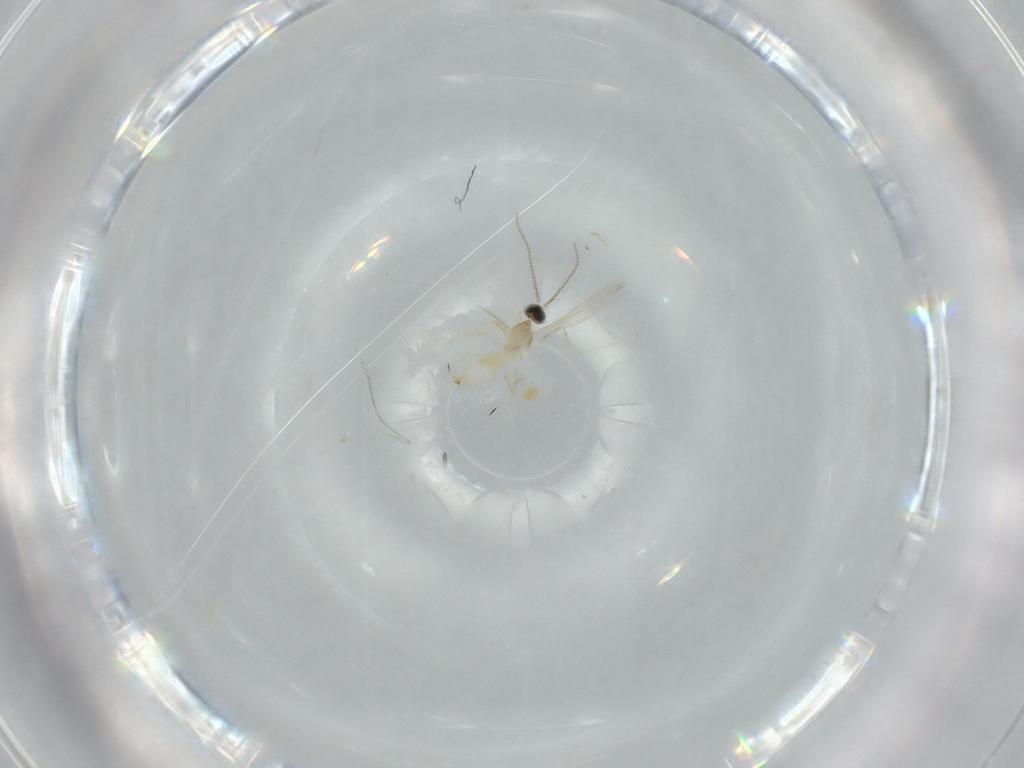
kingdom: Animalia
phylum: Arthropoda
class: Insecta
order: Diptera
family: Cecidomyiidae
